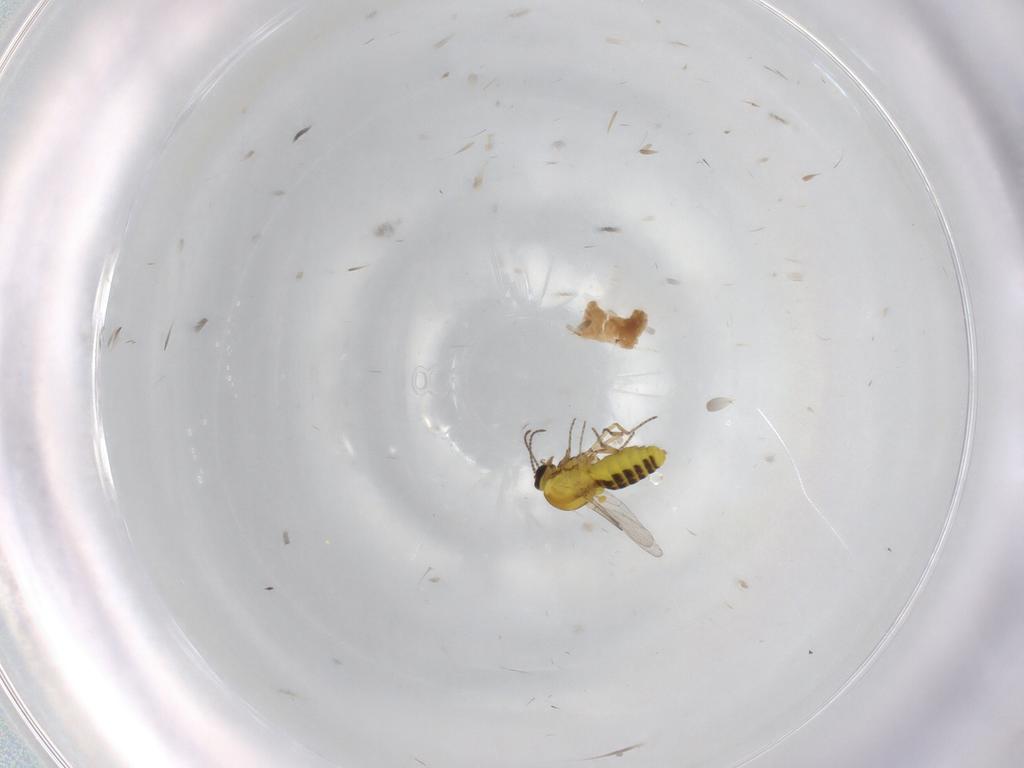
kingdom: Animalia
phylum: Arthropoda
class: Insecta
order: Diptera
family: Phoridae
